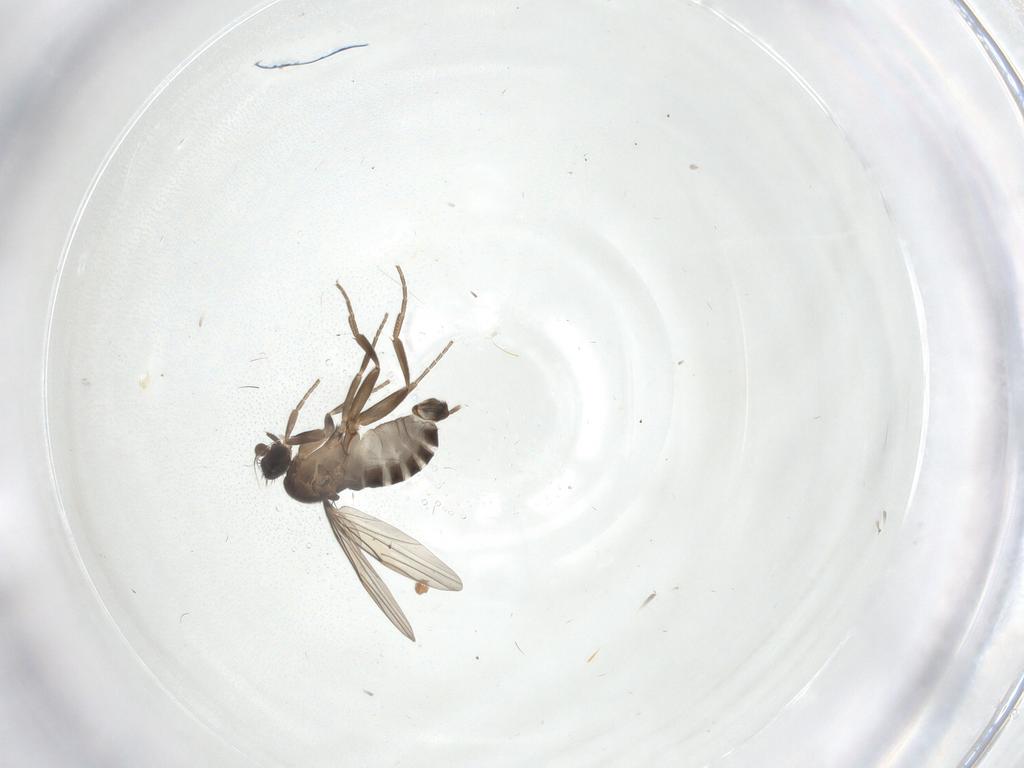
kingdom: Animalia
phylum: Arthropoda
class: Insecta
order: Diptera
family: Phoridae
